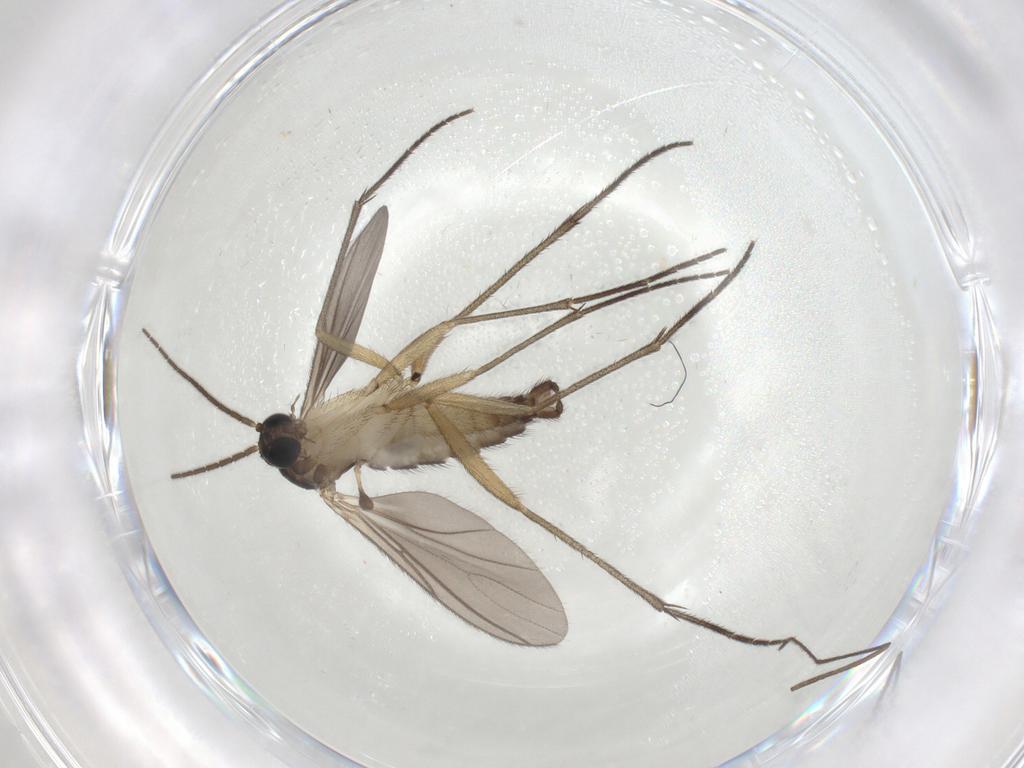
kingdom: Animalia
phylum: Arthropoda
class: Insecta
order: Diptera
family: Sciaridae
